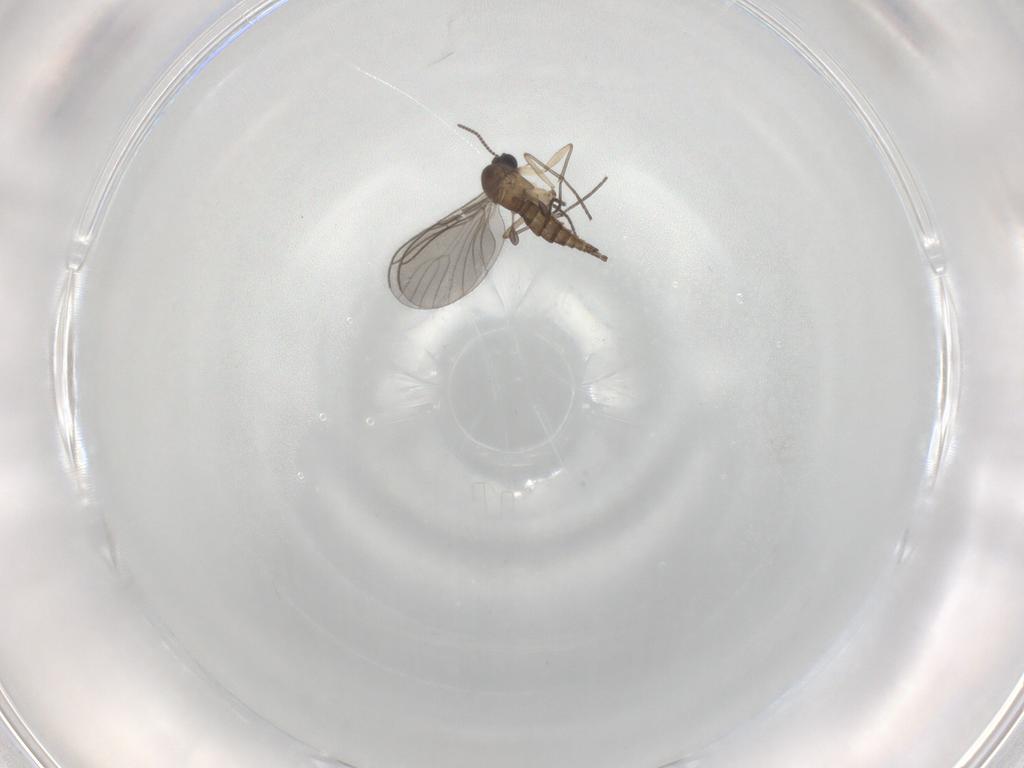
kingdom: Animalia
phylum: Arthropoda
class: Insecta
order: Diptera
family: Sciaridae
